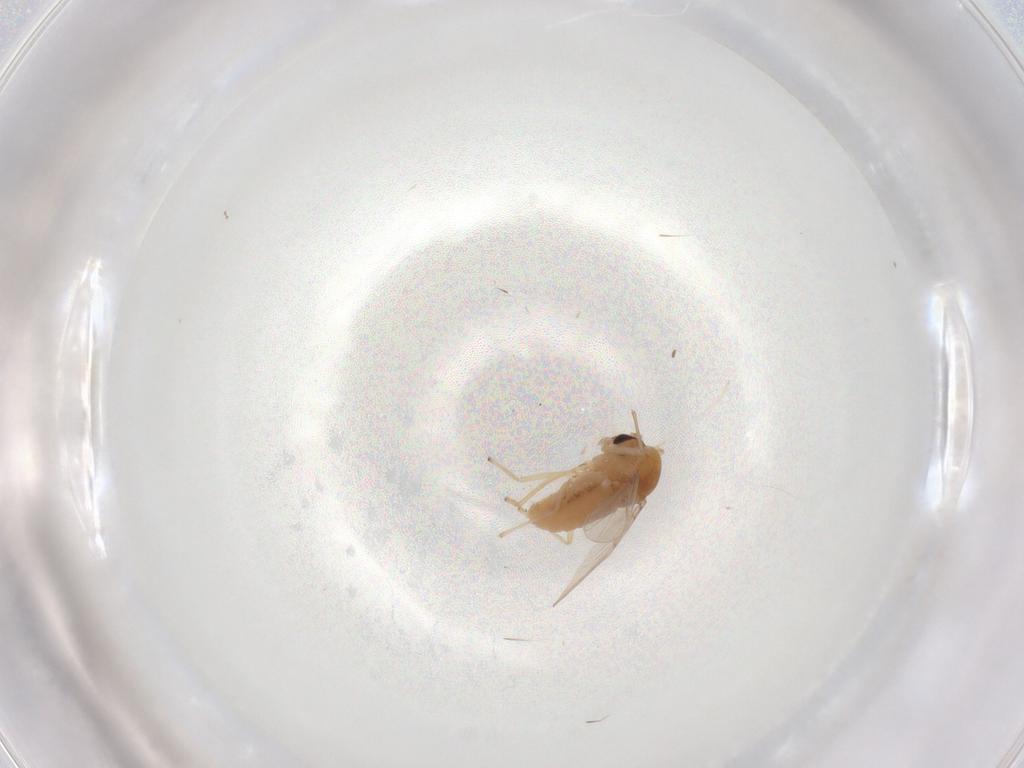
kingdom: Animalia
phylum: Arthropoda
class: Insecta
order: Diptera
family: Chironomidae
